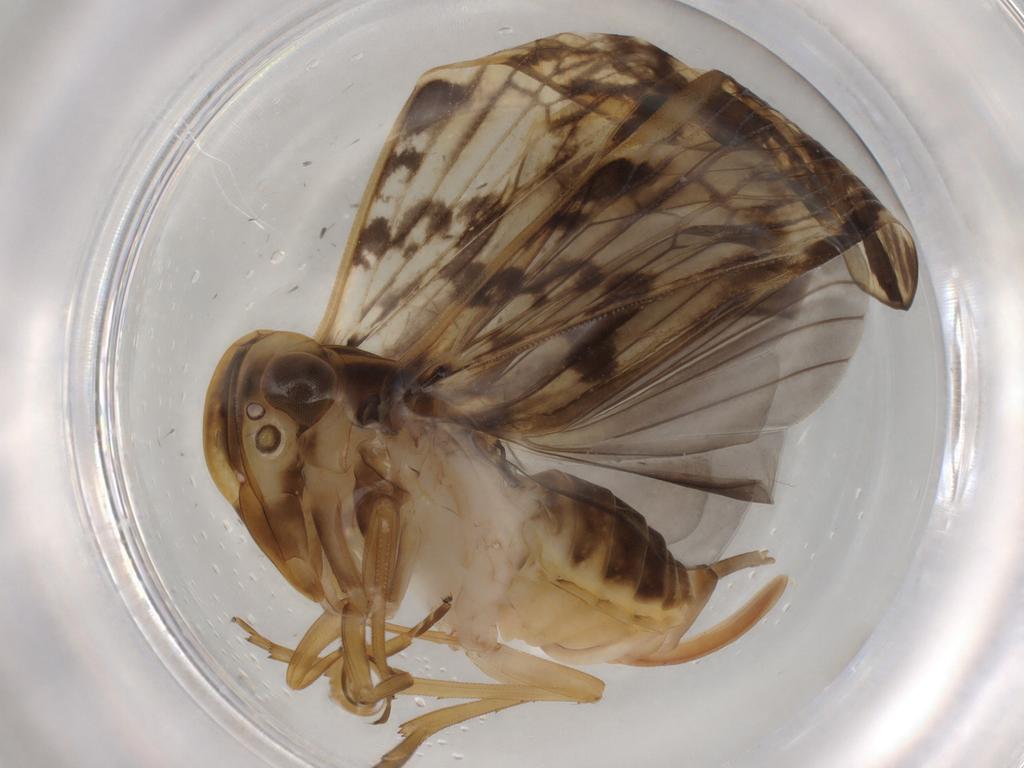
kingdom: Animalia
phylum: Arthropoda
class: Insecta
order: Hemiptera
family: Cixiidae
